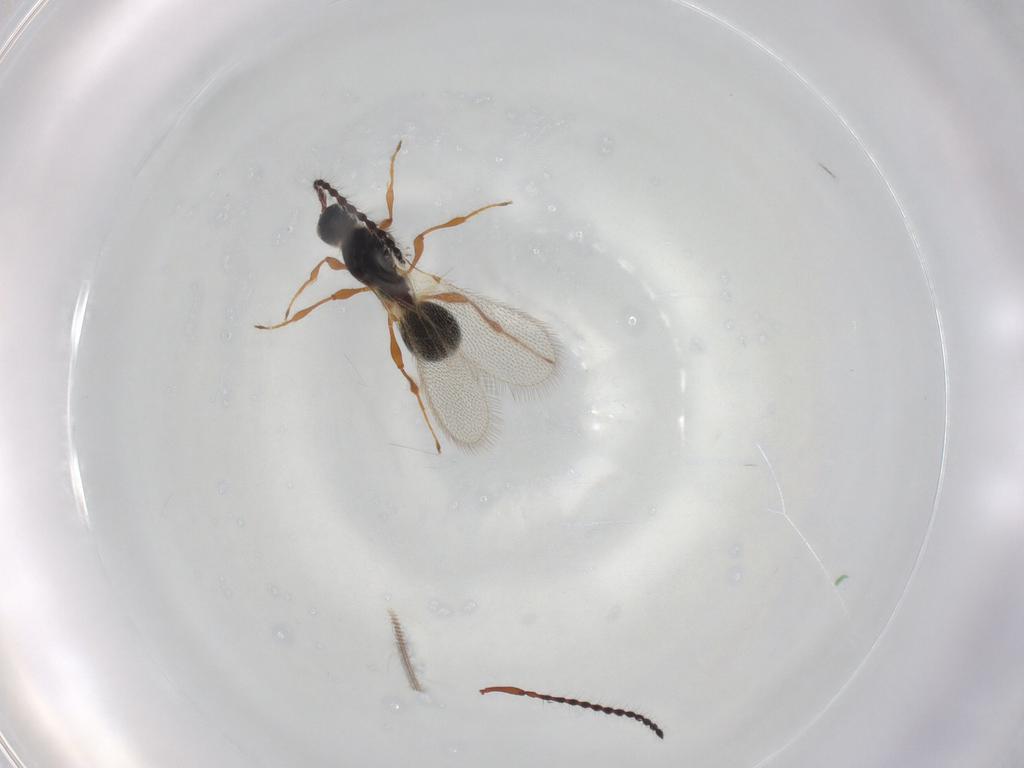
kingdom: Animalia
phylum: Arthropoda
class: Insecta
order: Hymenoptera
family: Diapriidae
